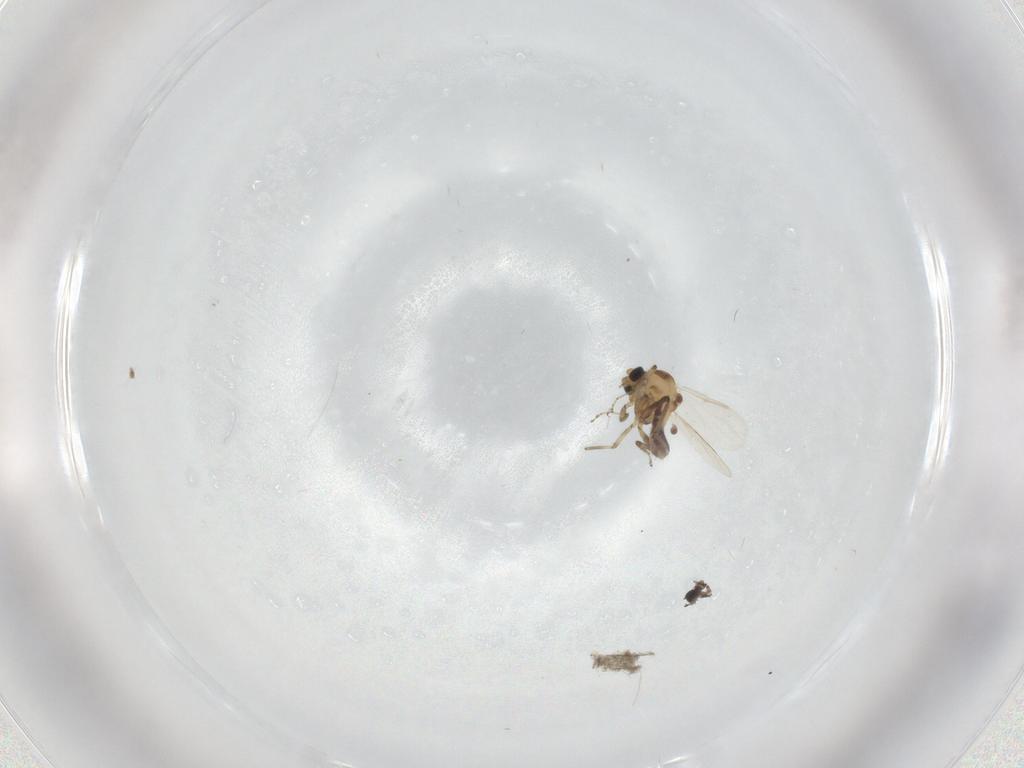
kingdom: Animalia
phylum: Arthropoda
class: Insecta
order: Diptera
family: Ceratopogonidae
